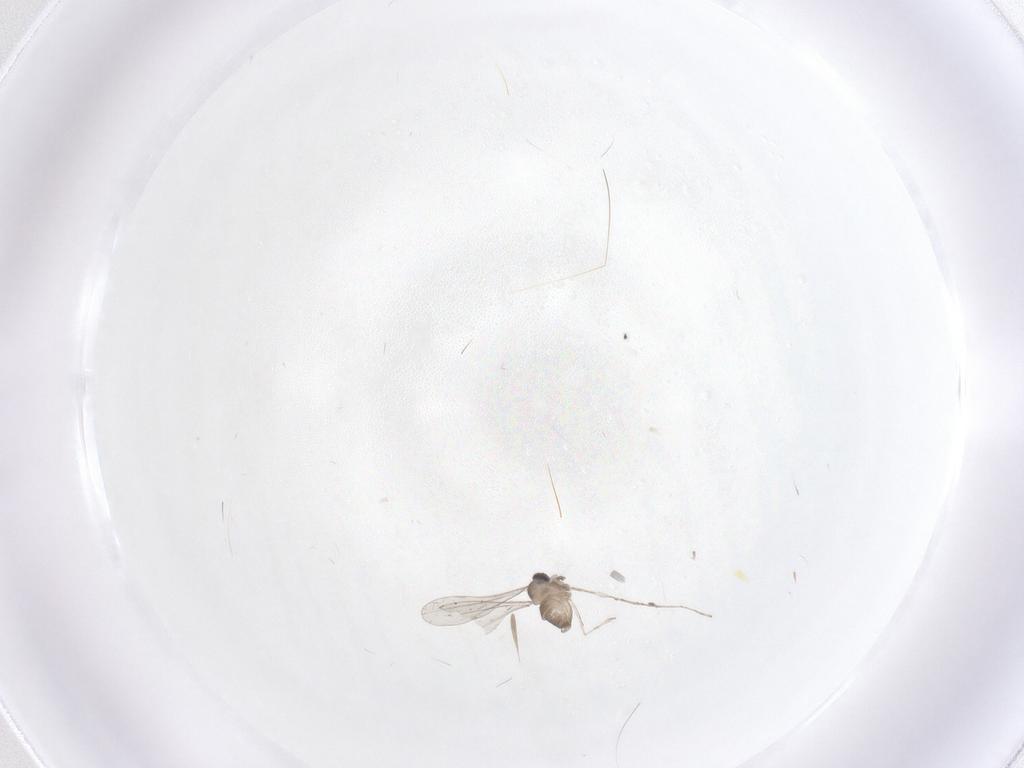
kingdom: Animalia
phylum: Arthropoda
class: Insecta
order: Diptera
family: Cecidomyiidae
